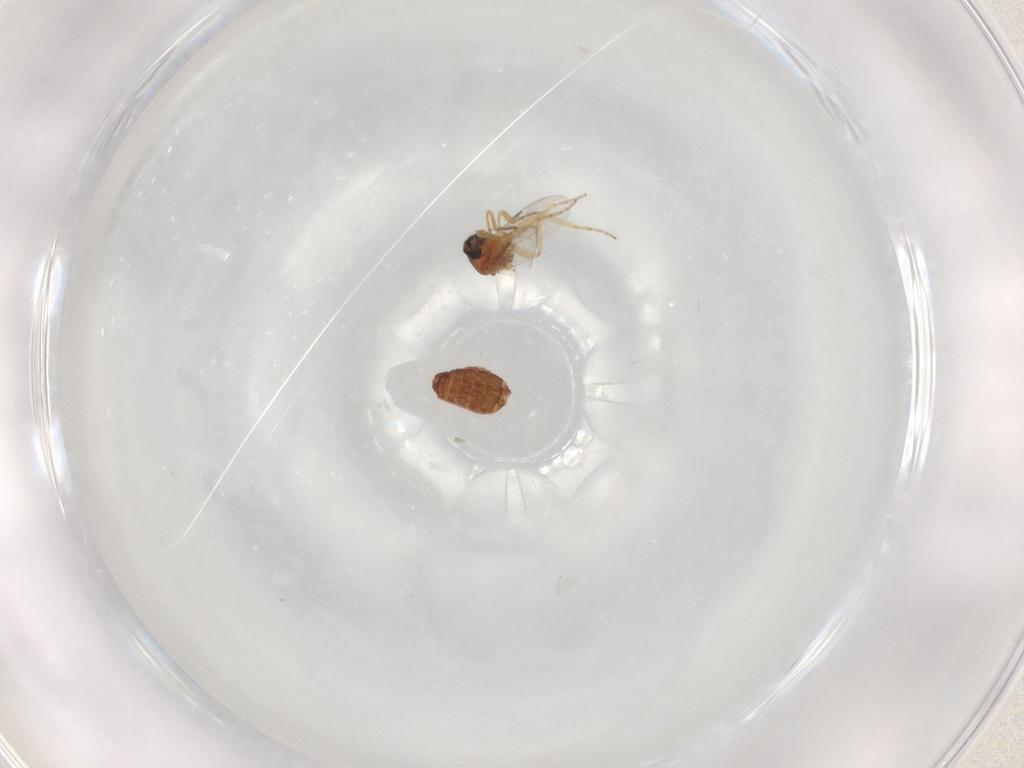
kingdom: Animalia
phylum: Arthropoda
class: Insecta
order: Diptera
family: Ceratopogonidae
